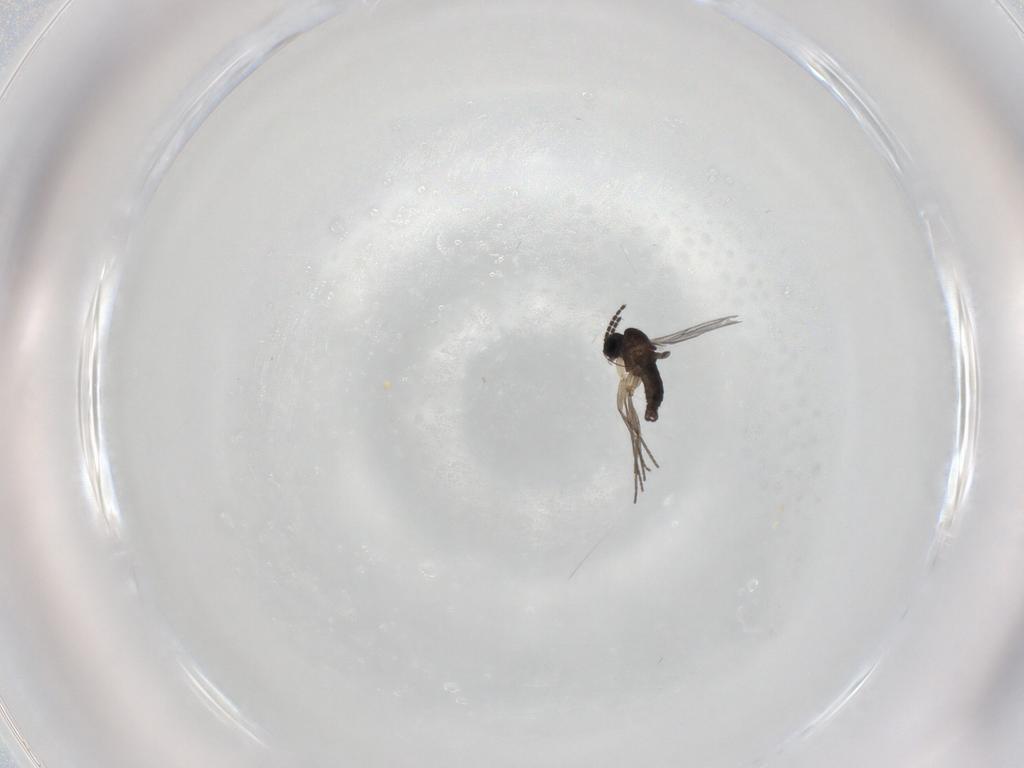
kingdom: Animalia
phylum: Arthropoda
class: Insecta
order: Diptera
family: Sciaridae
